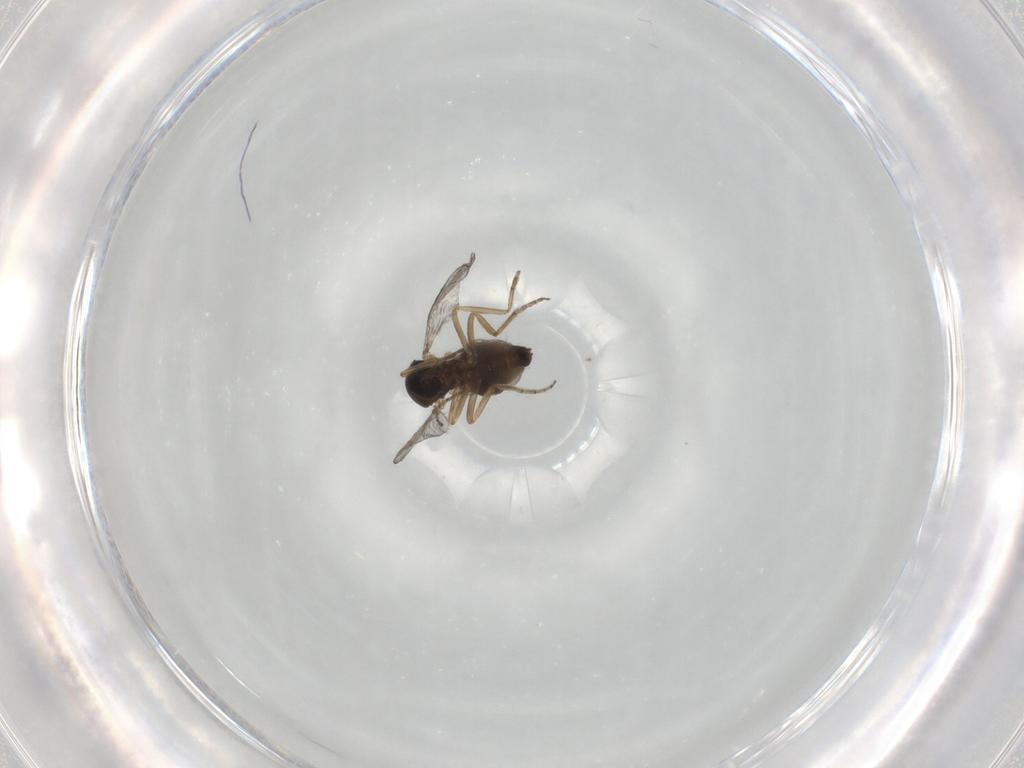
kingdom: Animalia
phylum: Arthropoda
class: Insecta
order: Diptera
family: Ceratopogonidae
